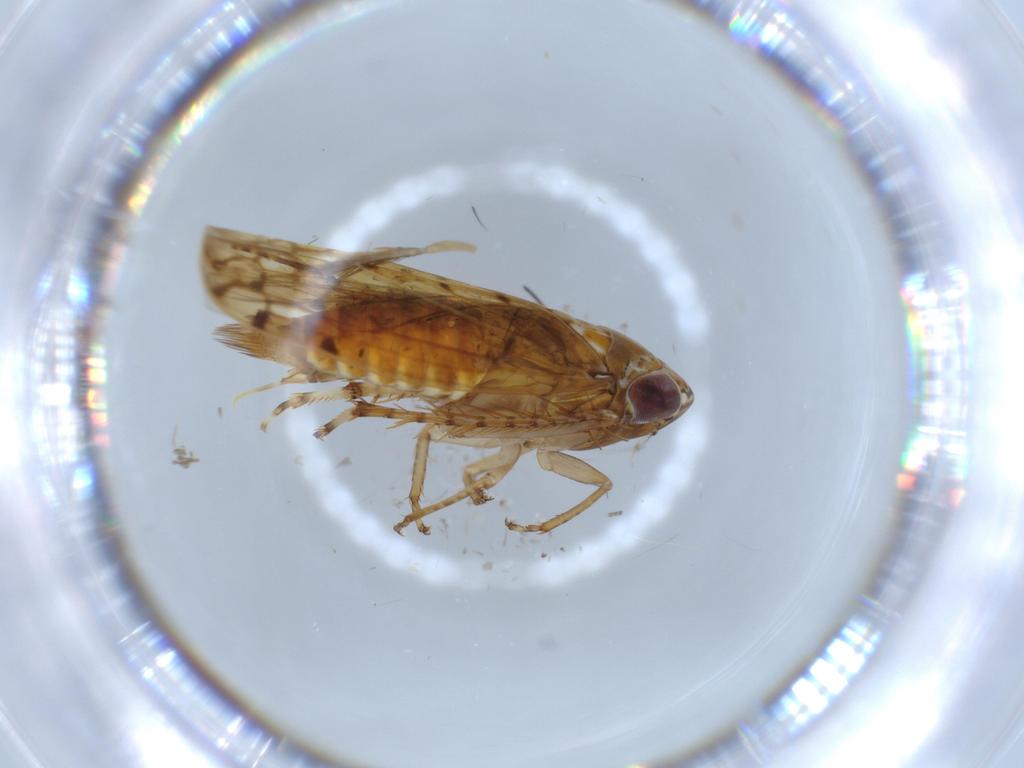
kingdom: Animalia
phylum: Arthropoda
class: Insecta
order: Hemiptera
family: Cicadellidae
